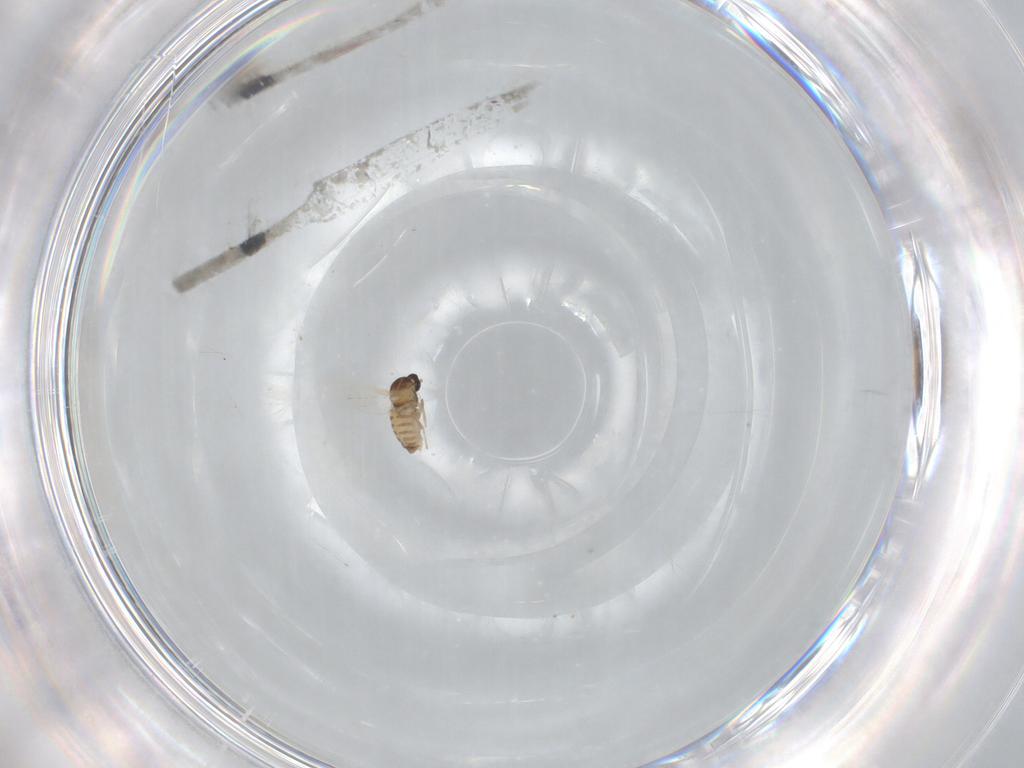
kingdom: Animalia
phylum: Arthropoda
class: Insecta
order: Diptera
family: Cecidomyiidae
